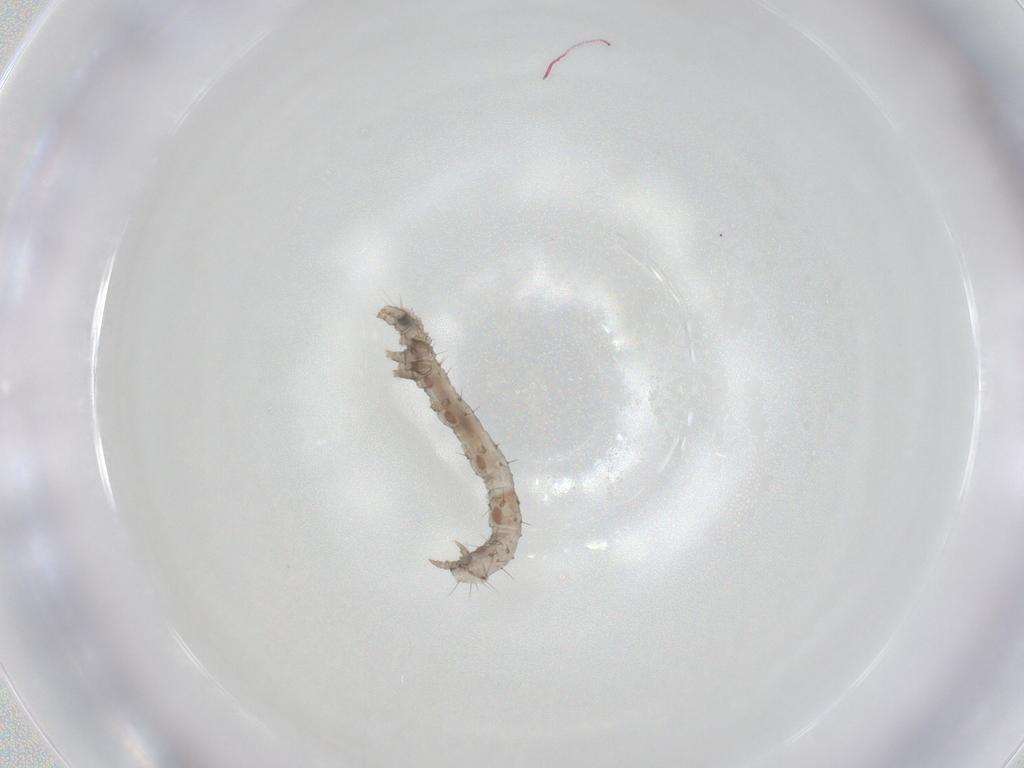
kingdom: Animalia
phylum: Arthropoda
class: Insecta
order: Lepidoptera
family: Erebidae
